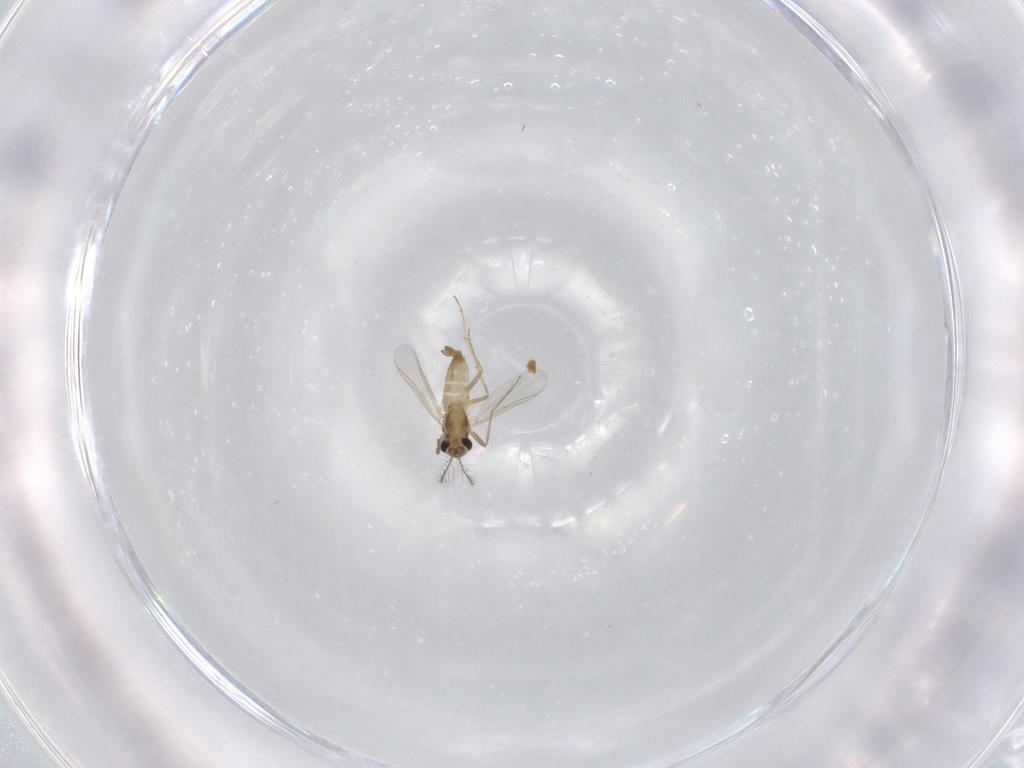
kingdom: Animalia
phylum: Arthropoda
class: Insecta
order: Diptera
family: Chironomidae
